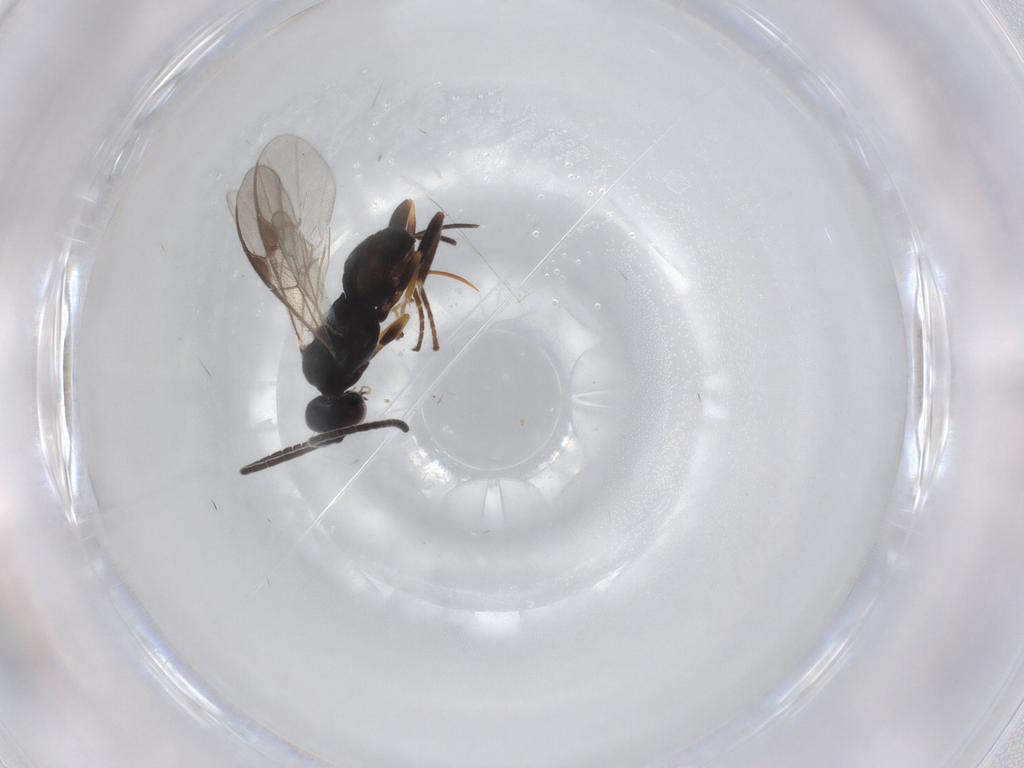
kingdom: Animalia
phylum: Arthropoda
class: Insecta
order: Hymenoptera
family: Braconidae
